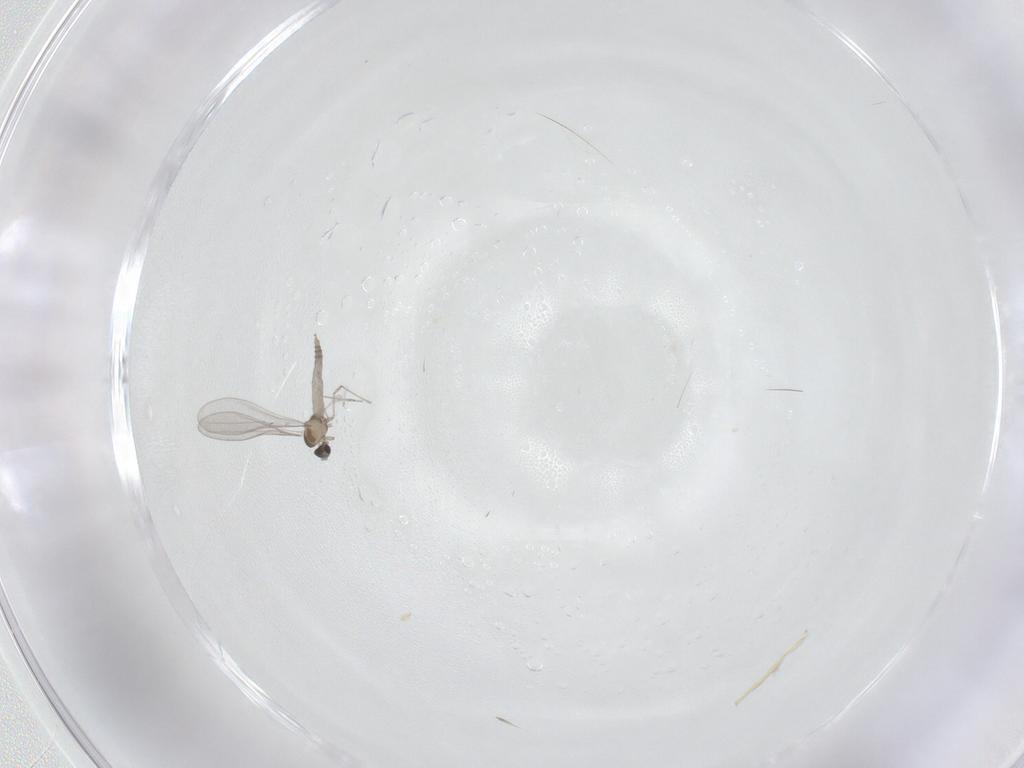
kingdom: Animalia
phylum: Arthropoda
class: Insecta
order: Diptera
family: Cecidomyiidae
